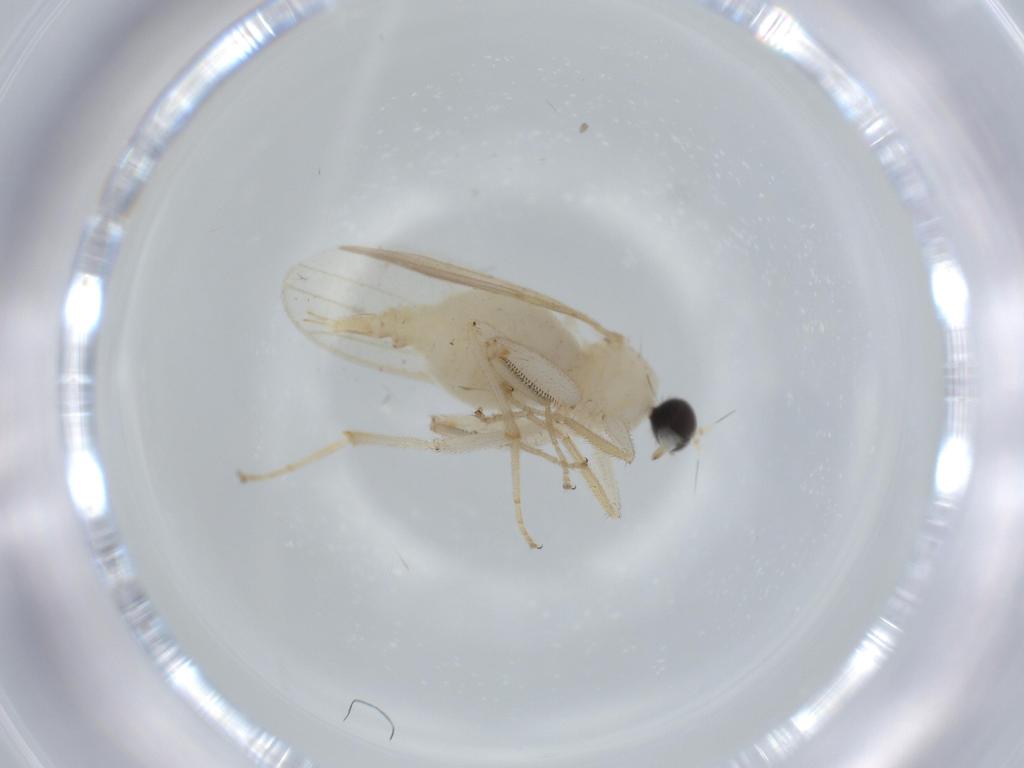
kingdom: Animalia
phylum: Arthropoda
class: Insecta
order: Diptera
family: Hybotidae
